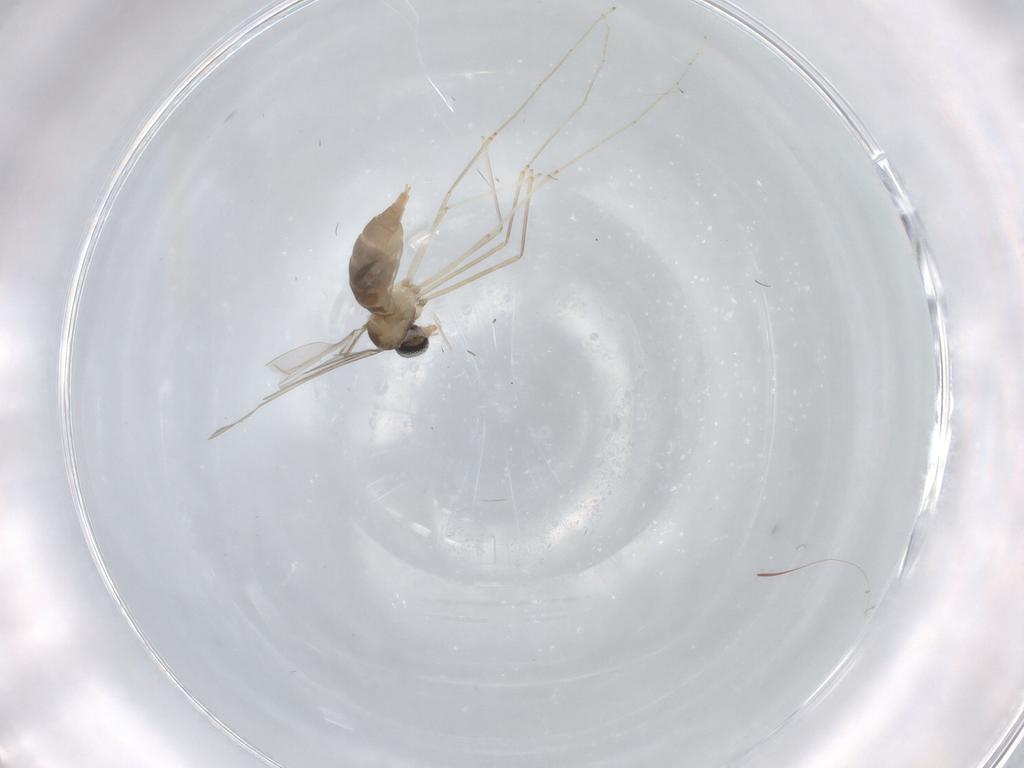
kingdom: Animalia
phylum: Arthropoda
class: Insecta
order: Diptera
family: Cecidomyiidae
